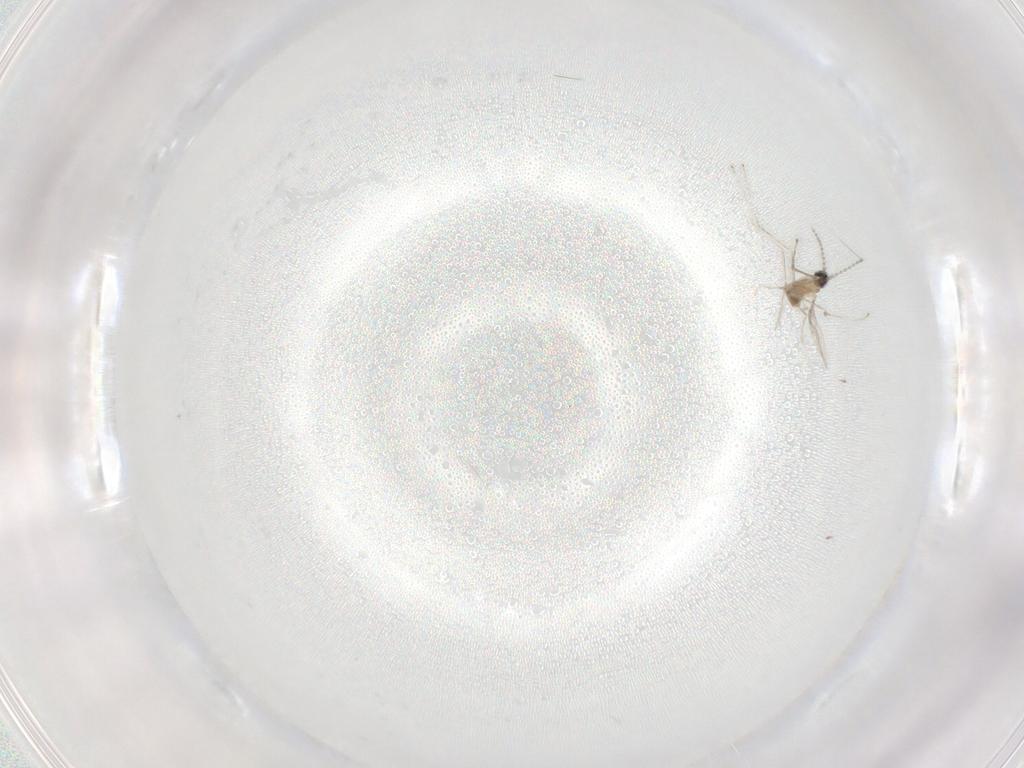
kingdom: Animalia
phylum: Arthropoda
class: Insecta
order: Diptera
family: Cecidomyiidae
